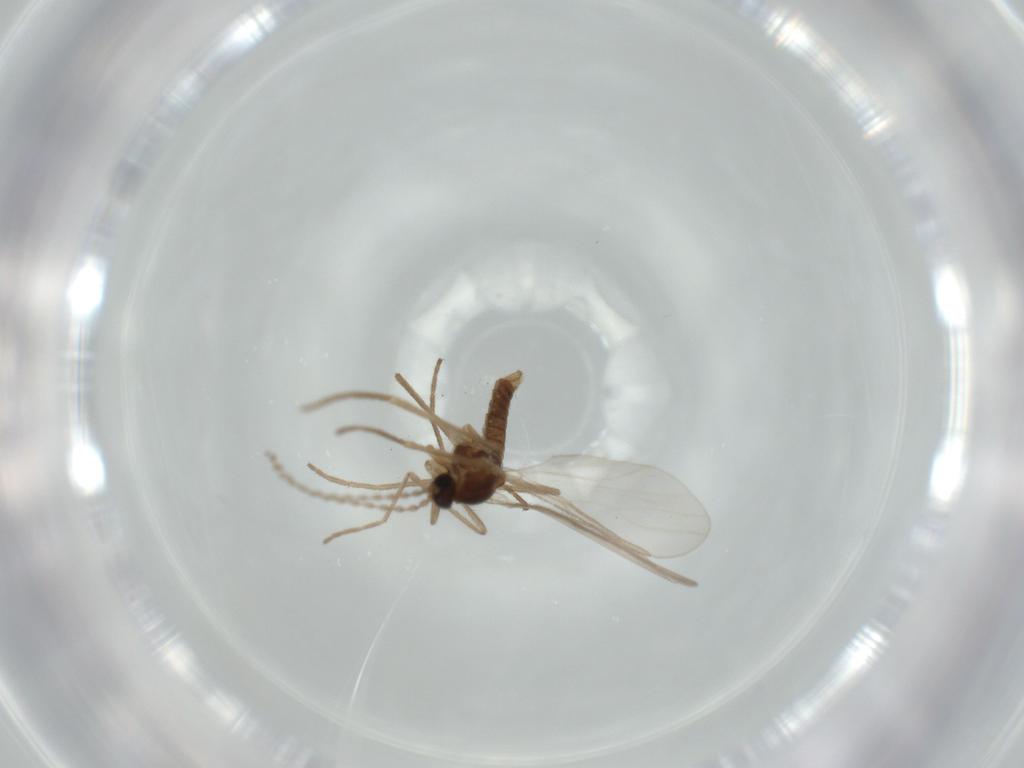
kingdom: Animalia
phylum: Arthropoda
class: Insecta
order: Diptera
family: Cecidomyiidae
